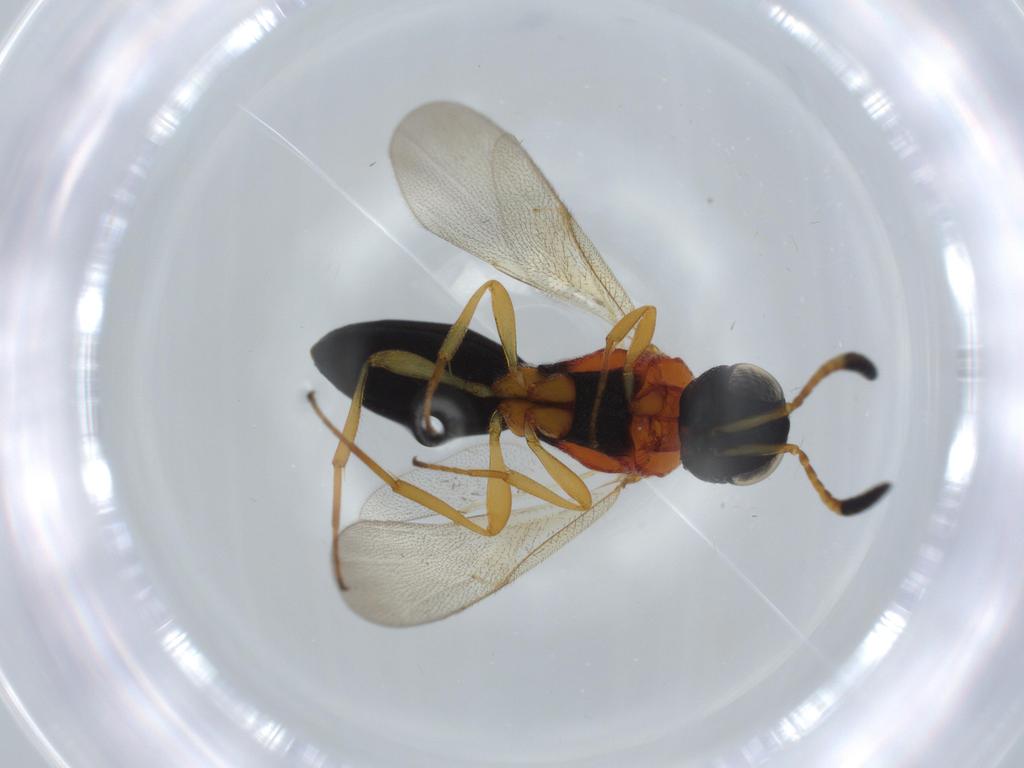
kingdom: Animalia
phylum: Arthropoda
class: Insecta
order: Hymenoptera
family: Scelionidae
